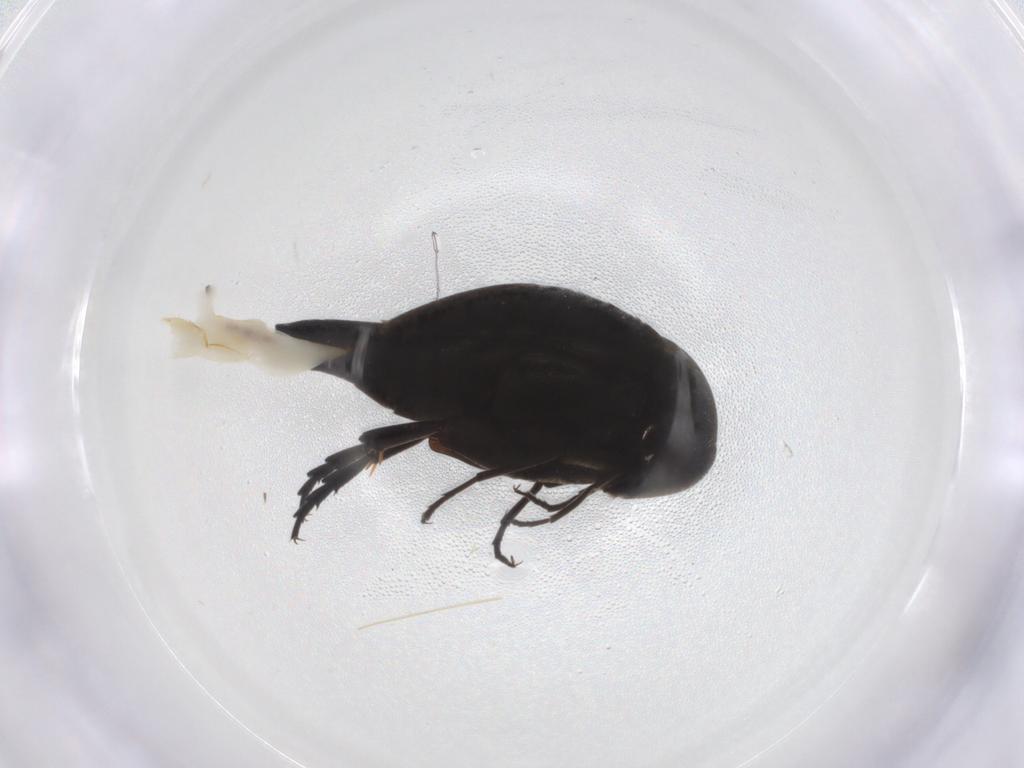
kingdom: Animalia
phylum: Arthropoda
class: Insecta
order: Coleoptera
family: Mordellidae
